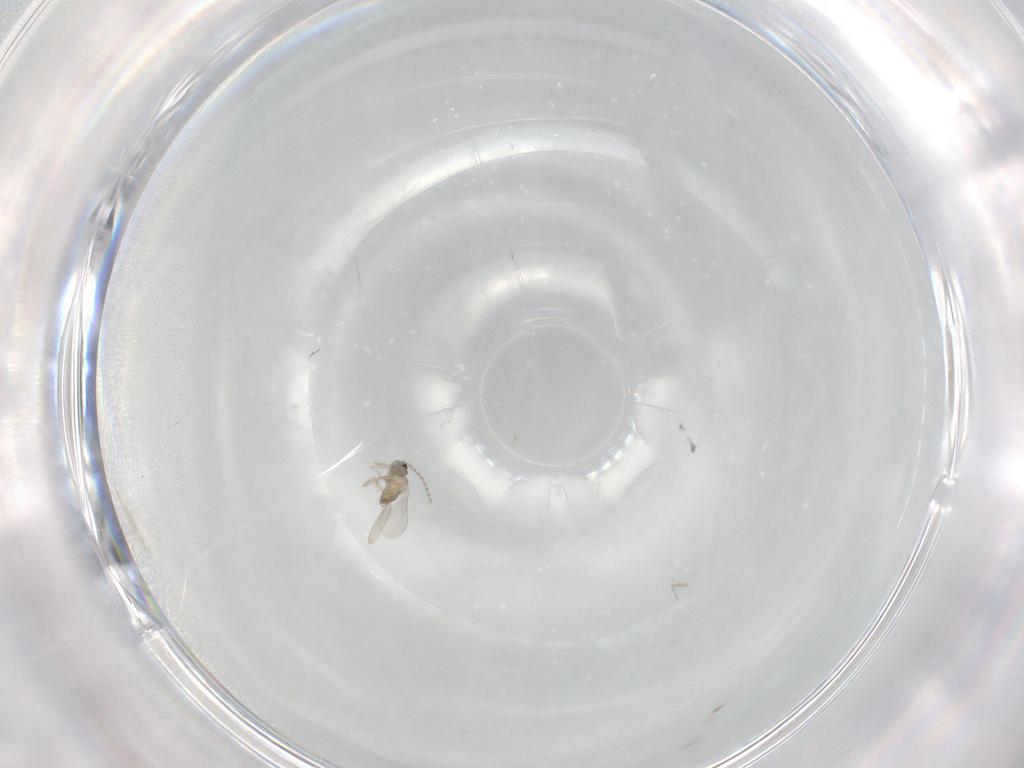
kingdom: Animalia
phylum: Arthropoda
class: Insecta
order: Diptera
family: Cecidomyiidae
